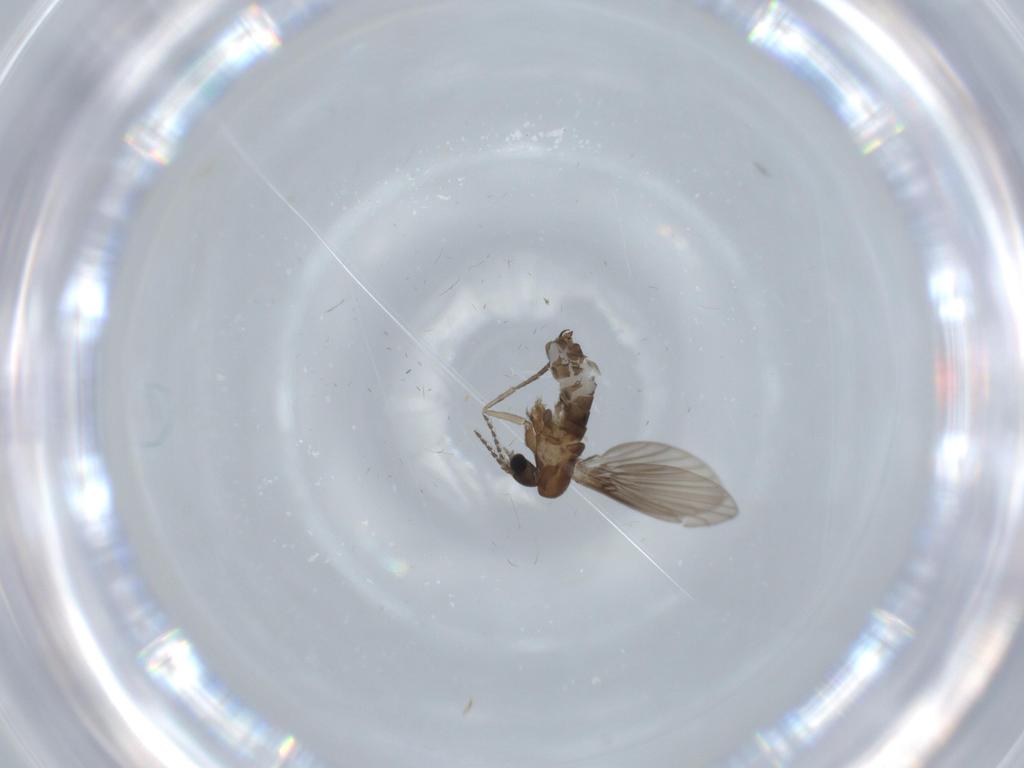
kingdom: Animalia
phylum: Arthropoda
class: Insecta
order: Diptera
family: Psychodidae
